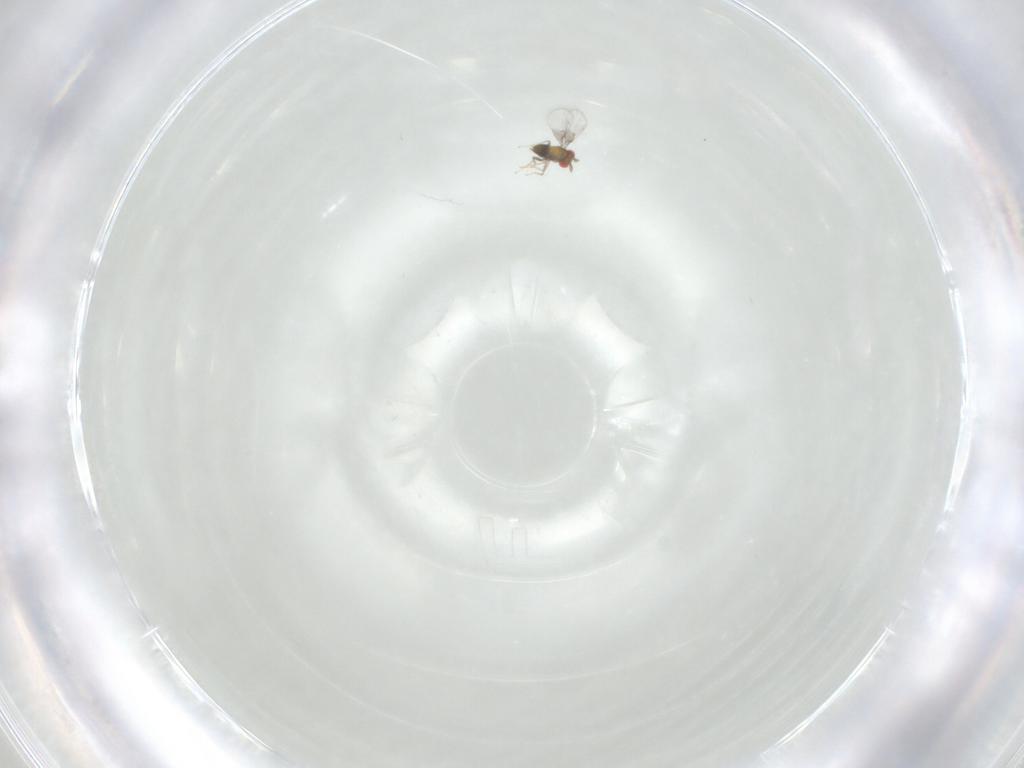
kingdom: Animalia
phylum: Arthropoda
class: Insecta
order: Hymenoptera
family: Trichogrammatidae
